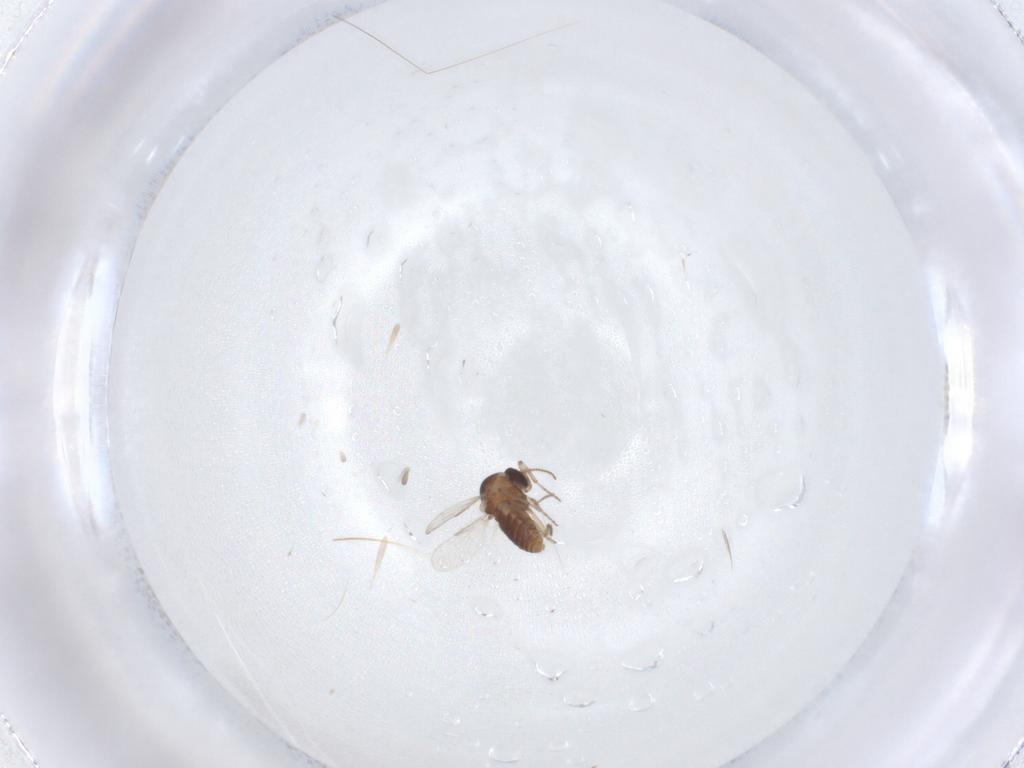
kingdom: Animalia
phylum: Arthropoda
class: Insecta
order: Diptera
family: Ceratopogonidae
